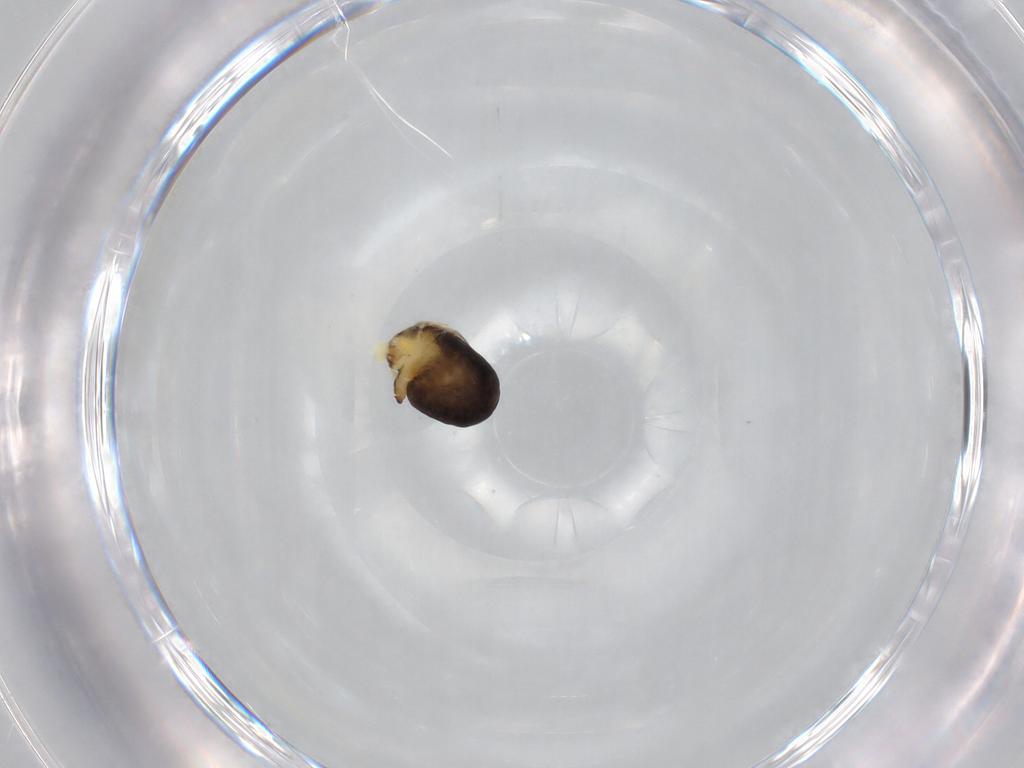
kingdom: Animalia
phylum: Arthropoda
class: Insecta
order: Hymenoptera
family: Dryinidae
